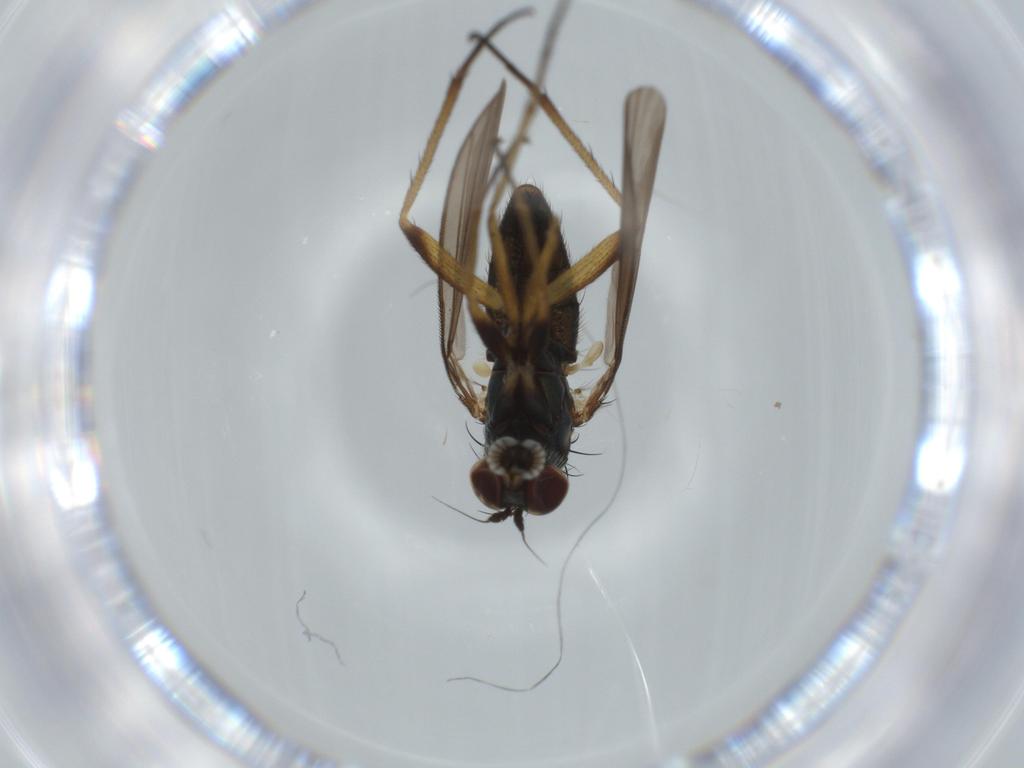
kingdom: Animalia
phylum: Arthropoda
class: Insecta
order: Diptera
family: Dolichopodidae
